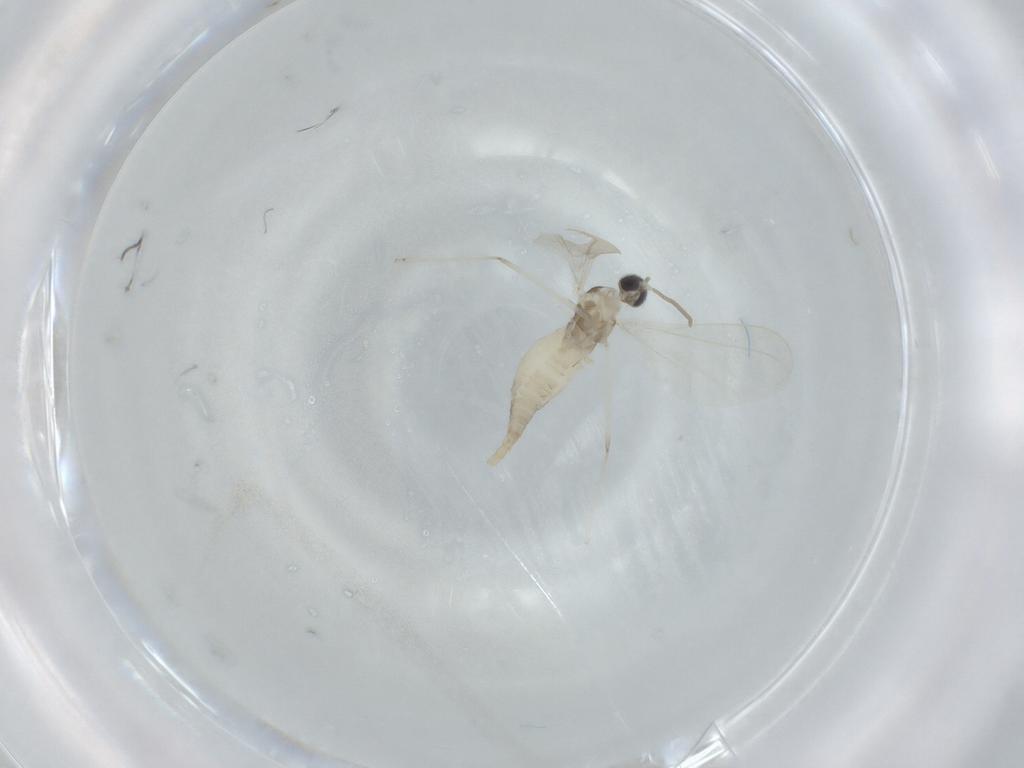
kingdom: Animalia
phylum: Arthropoda
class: Insecta
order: Diptera
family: Cecidomyiidae
